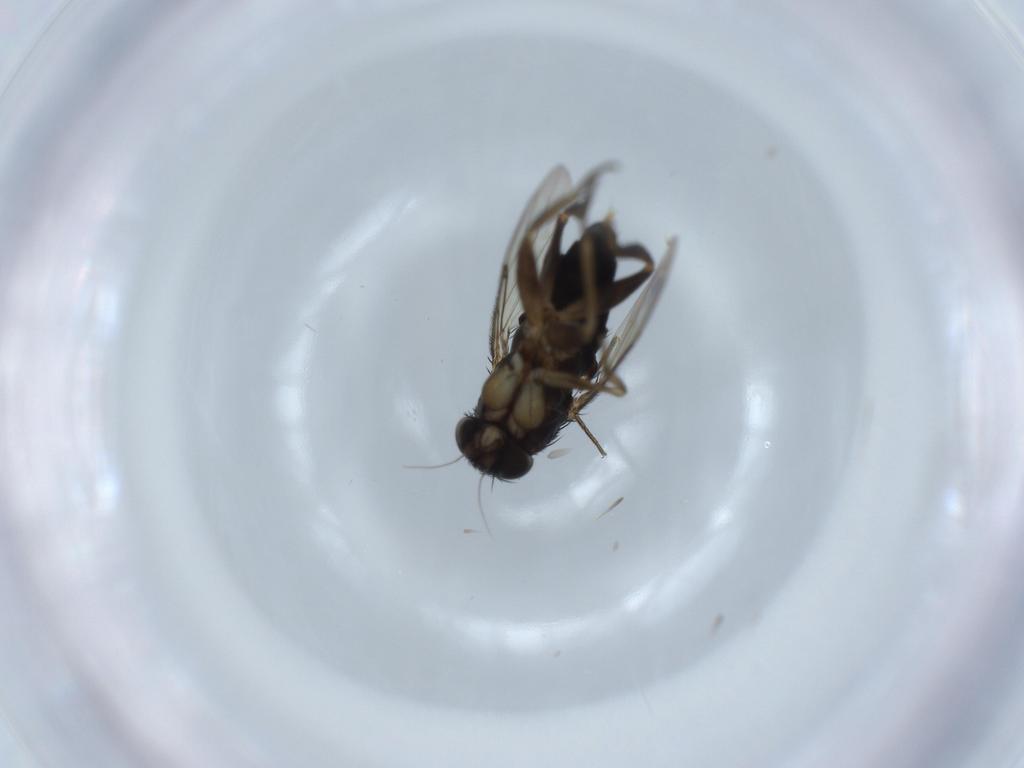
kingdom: Animalia
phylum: Arthropoda
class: Insecta
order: Diptera
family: Phoridae
